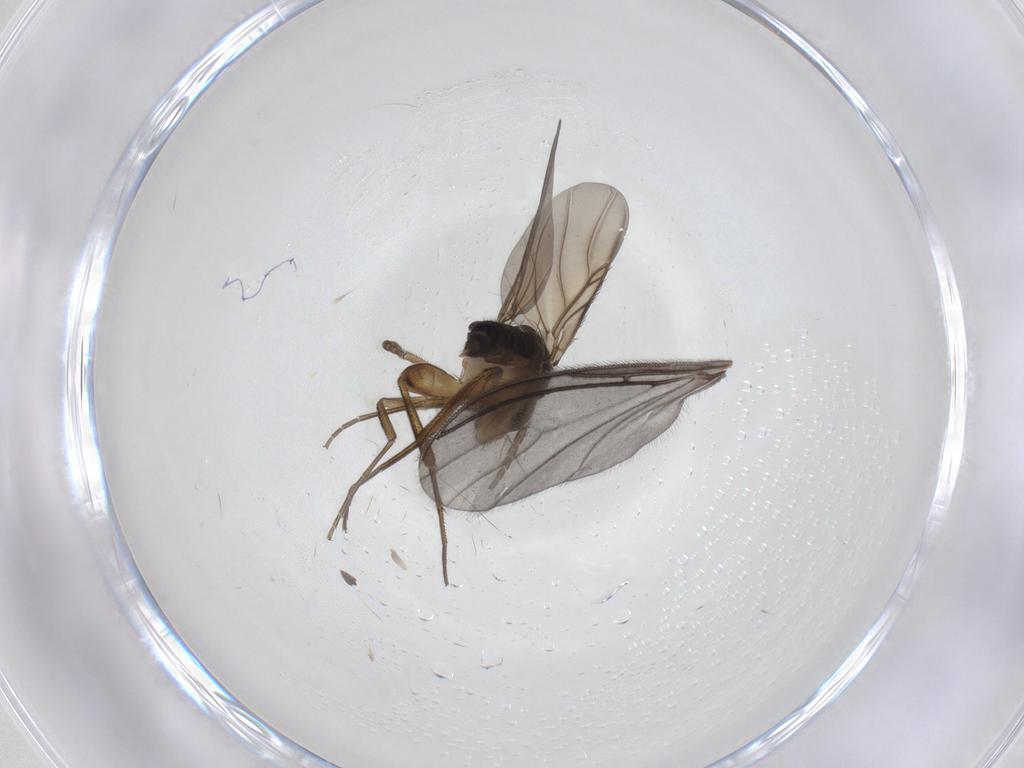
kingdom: Animalia
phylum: Arthropoda
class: Insecta
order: Diptera
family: Phoridae
